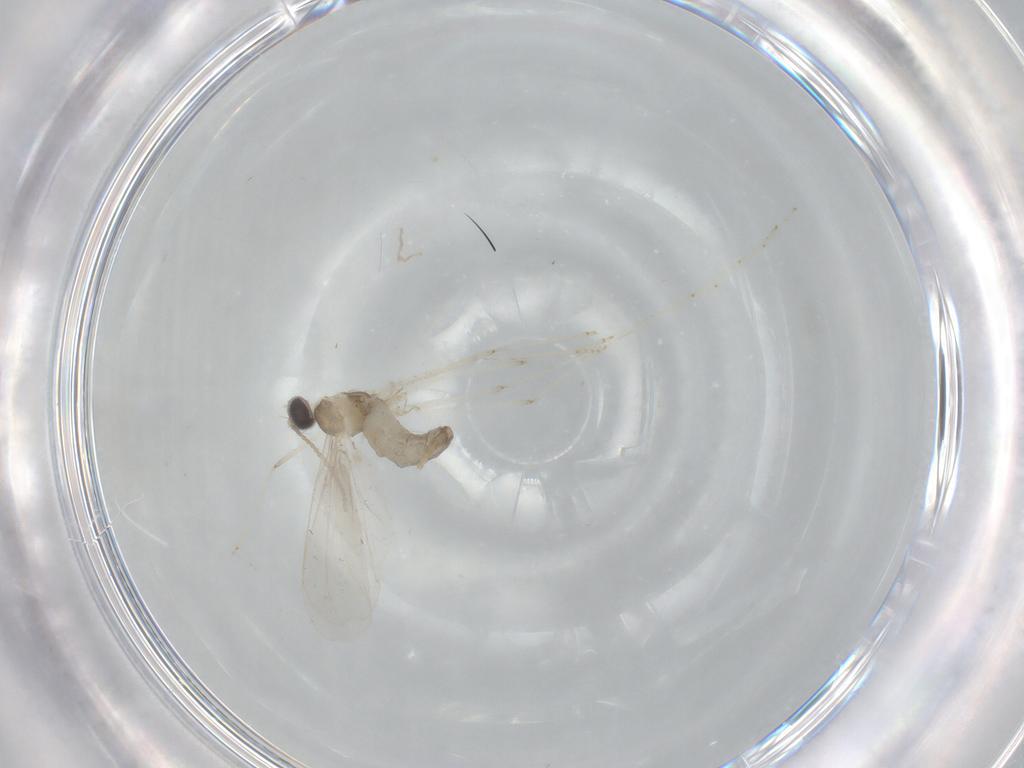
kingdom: Animalia
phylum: Arthropoda
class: Insecta
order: Diptera
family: Cecidomyiidae
